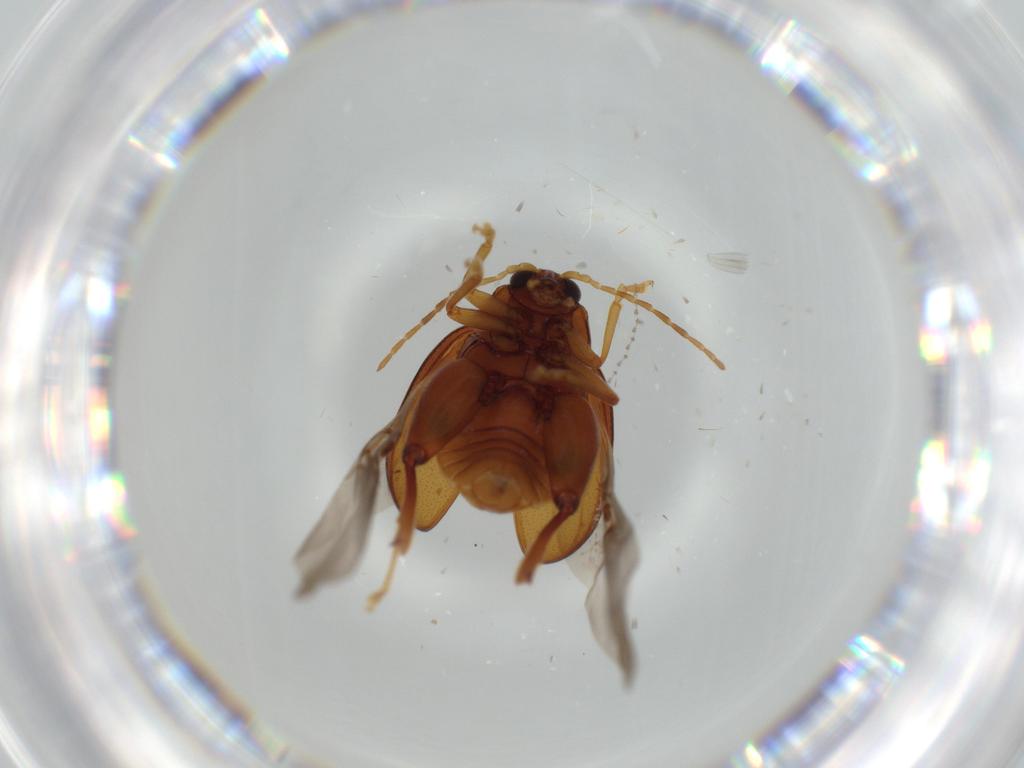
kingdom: Animalia
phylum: Arthropoda
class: Insecta
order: Coleoptera
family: Chrysomelidae
